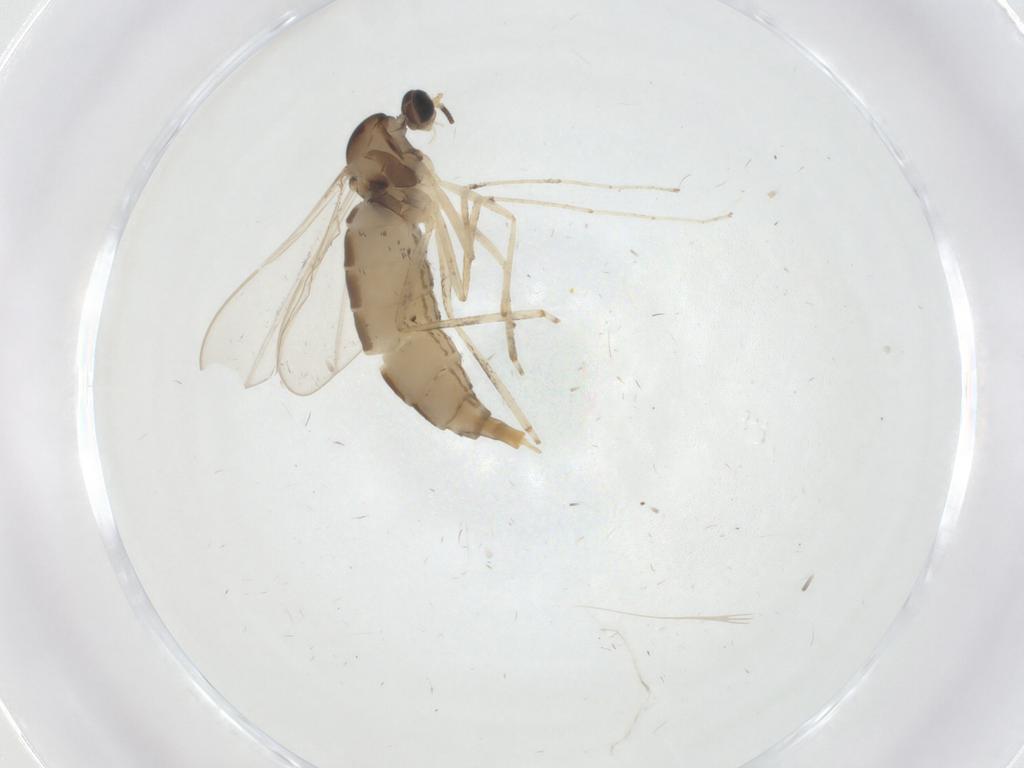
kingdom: Animalia
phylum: Arthropoda
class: Insecta
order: Diptera
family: Cecidomyiidae
